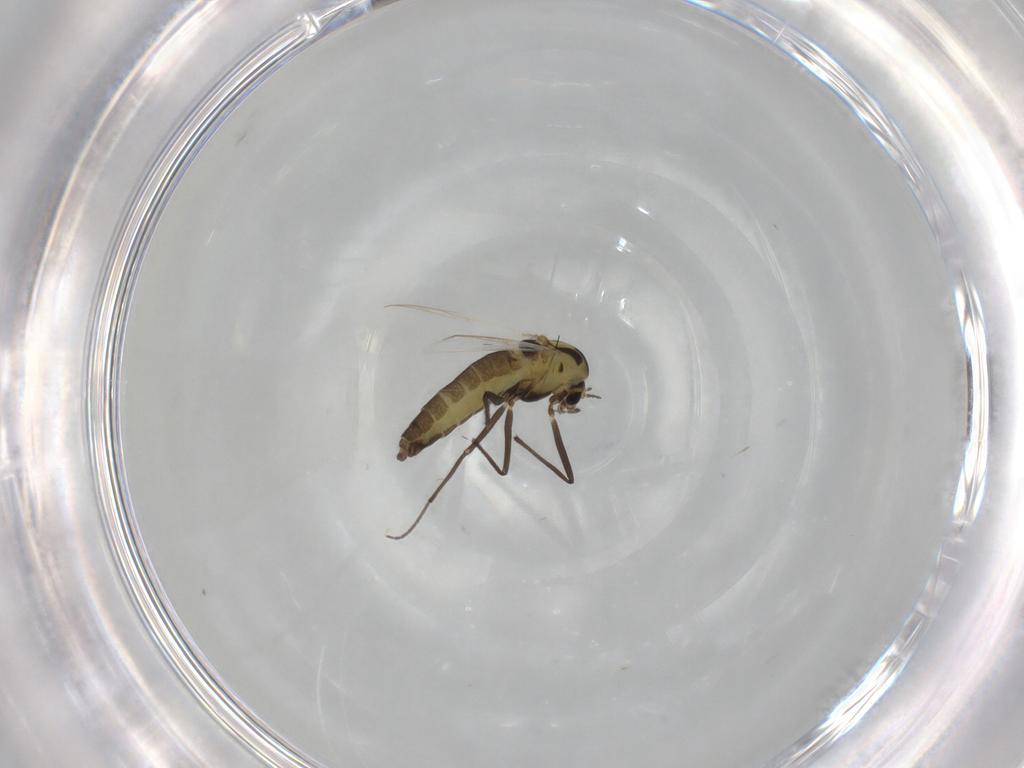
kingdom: Animalia
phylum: Arthropoda
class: Insecta
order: Diptera
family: Chironomidae
